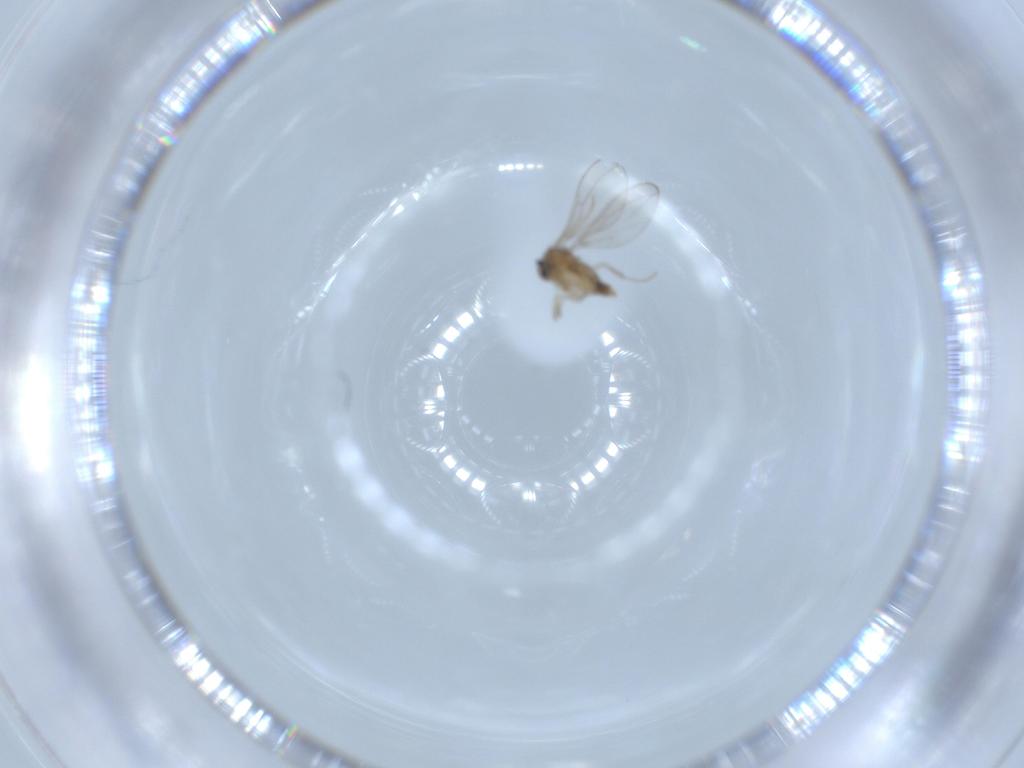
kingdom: Animalia
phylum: Arthropoda
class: Insecta
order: Diptera
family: Cecidomyiidae
